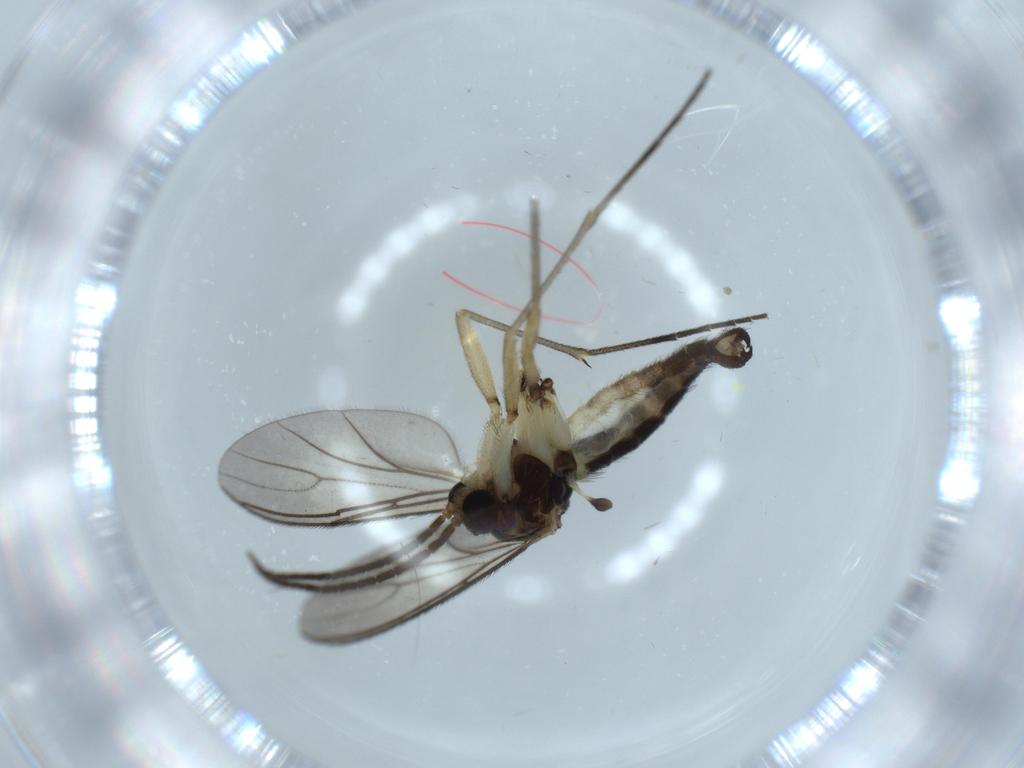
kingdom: Animalia
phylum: Arthropoda
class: Insecta
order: Diptera
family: Sciaridae
